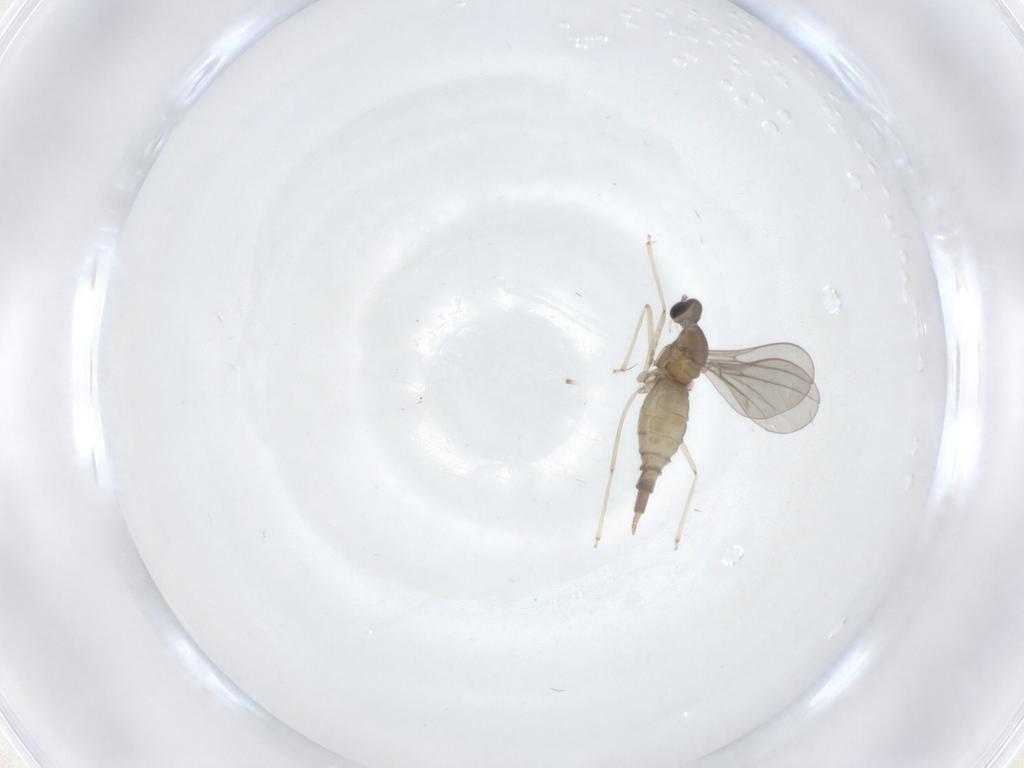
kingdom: Animalia
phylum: Arthropoda
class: Insecta
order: Diptera
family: Cecidomyiidae
